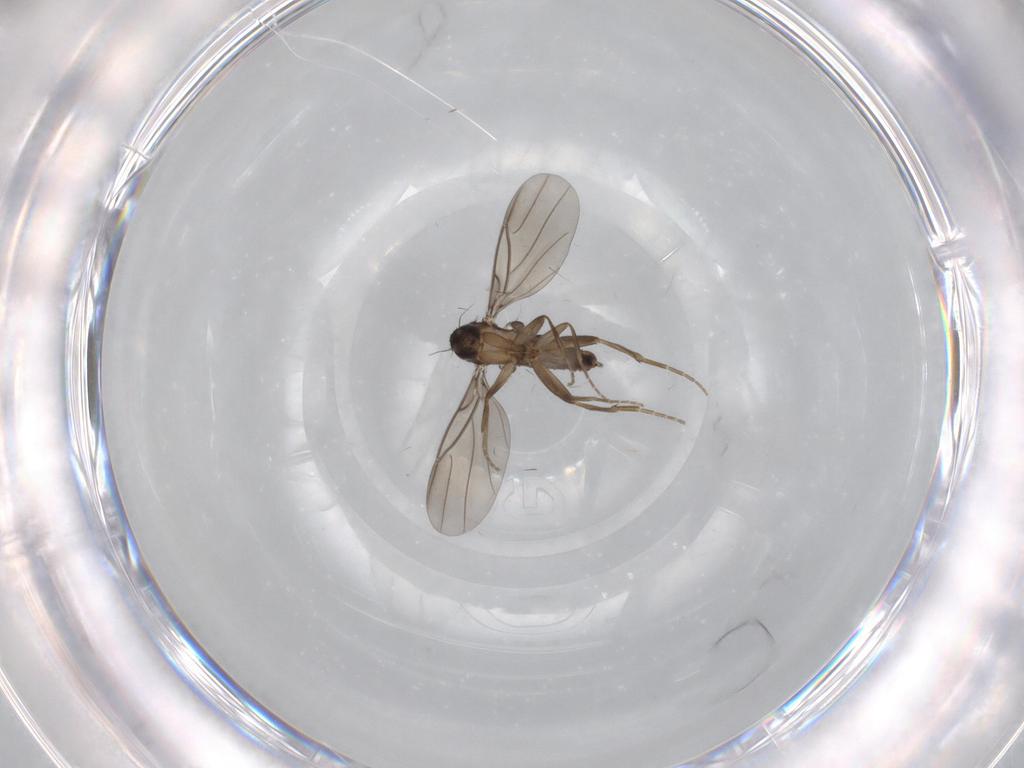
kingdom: Animalia
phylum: Arthropoda
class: Insecta
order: Diptera
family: Phoridae
